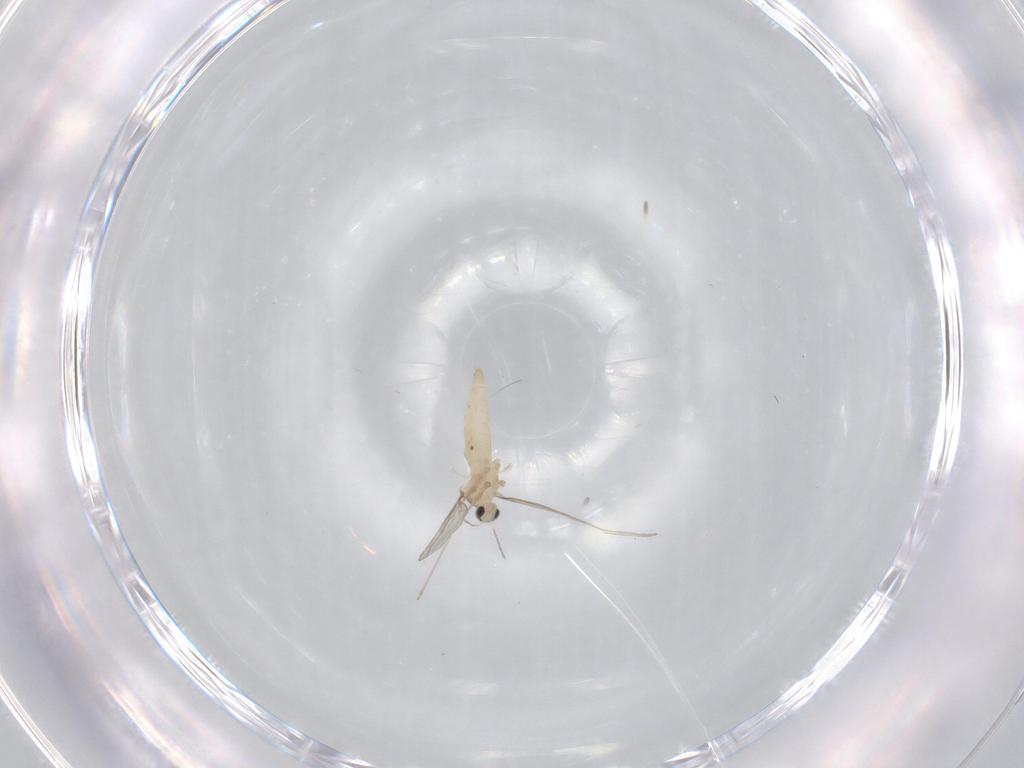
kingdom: Animalia
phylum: Arthropoda
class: Insecta
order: Diptera
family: Cecidomyiidae
